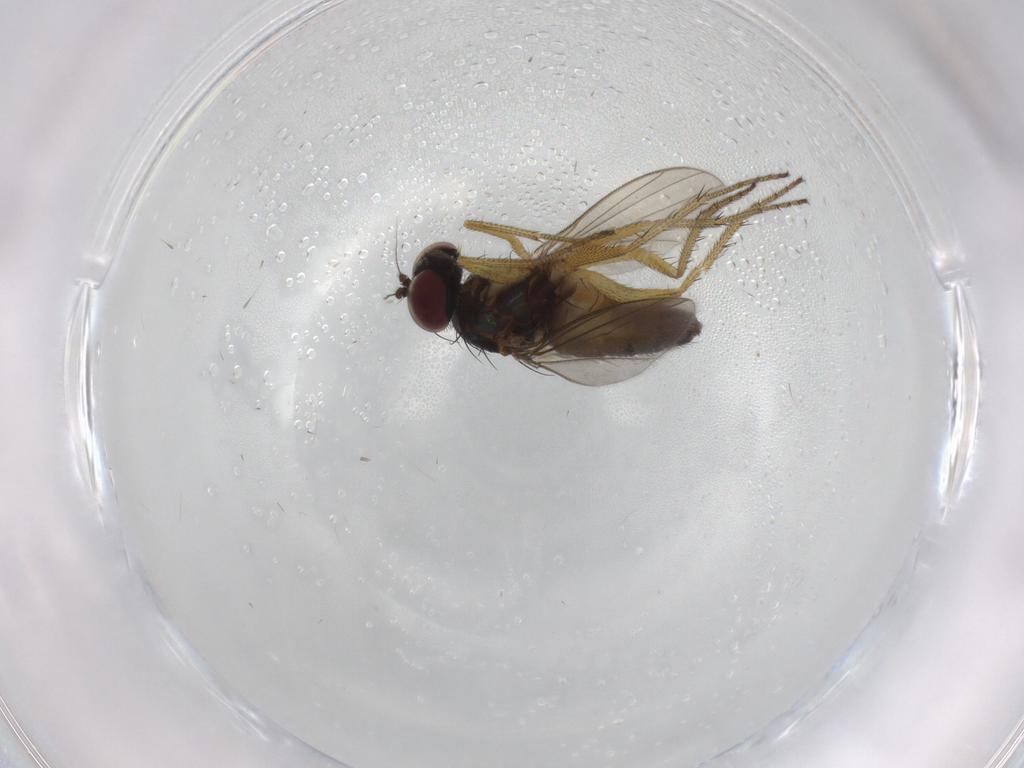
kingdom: Animalia
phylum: Arthropoda
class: Insecta
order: Diptera
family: Chironomidae
